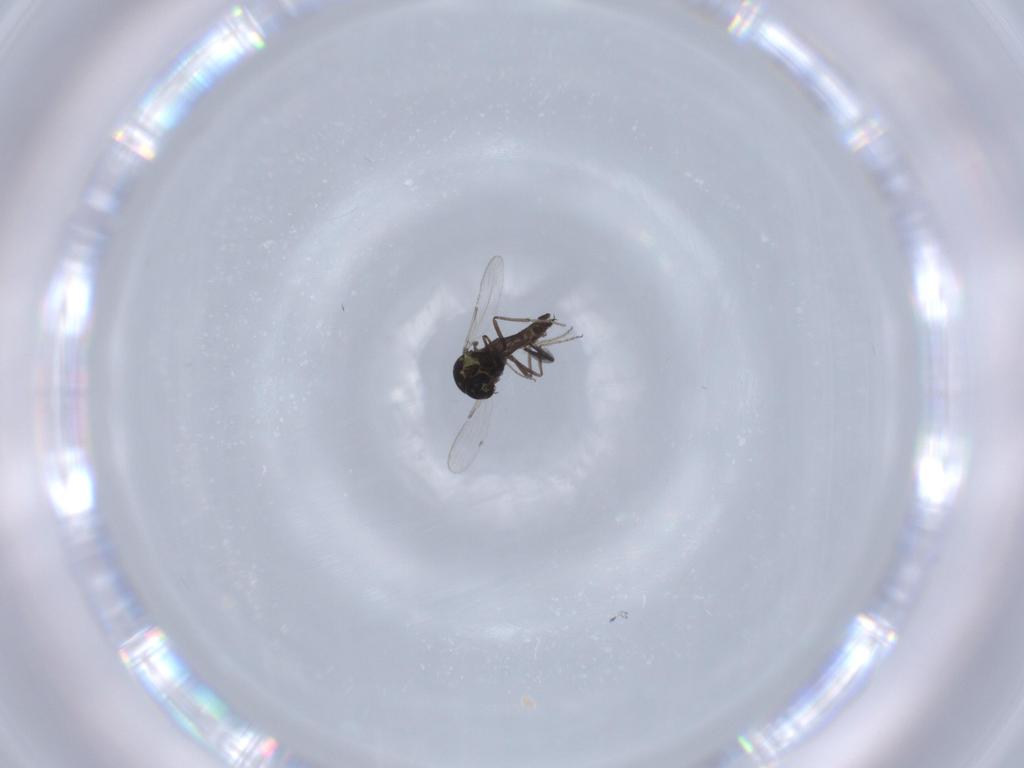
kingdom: Animalia
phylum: Arthropoda
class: Insecta
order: Diptera
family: Ceratopogonidae
